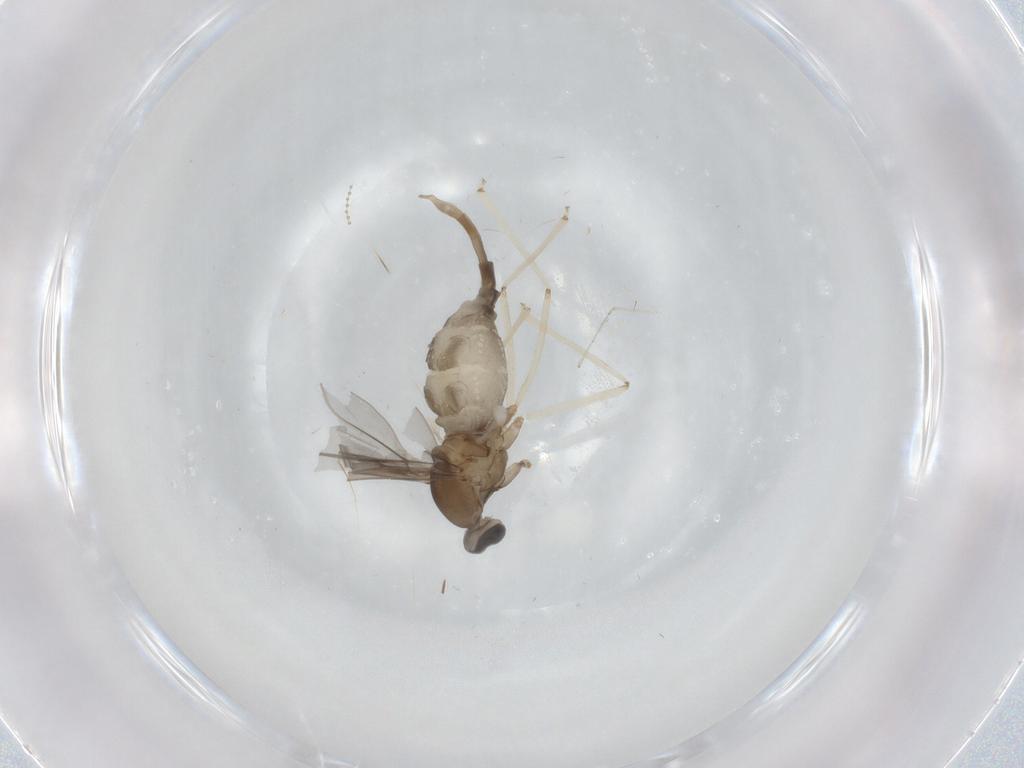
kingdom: Animalia
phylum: Arthropoda
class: Insecta
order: Diptera
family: Cecidomyiidae
